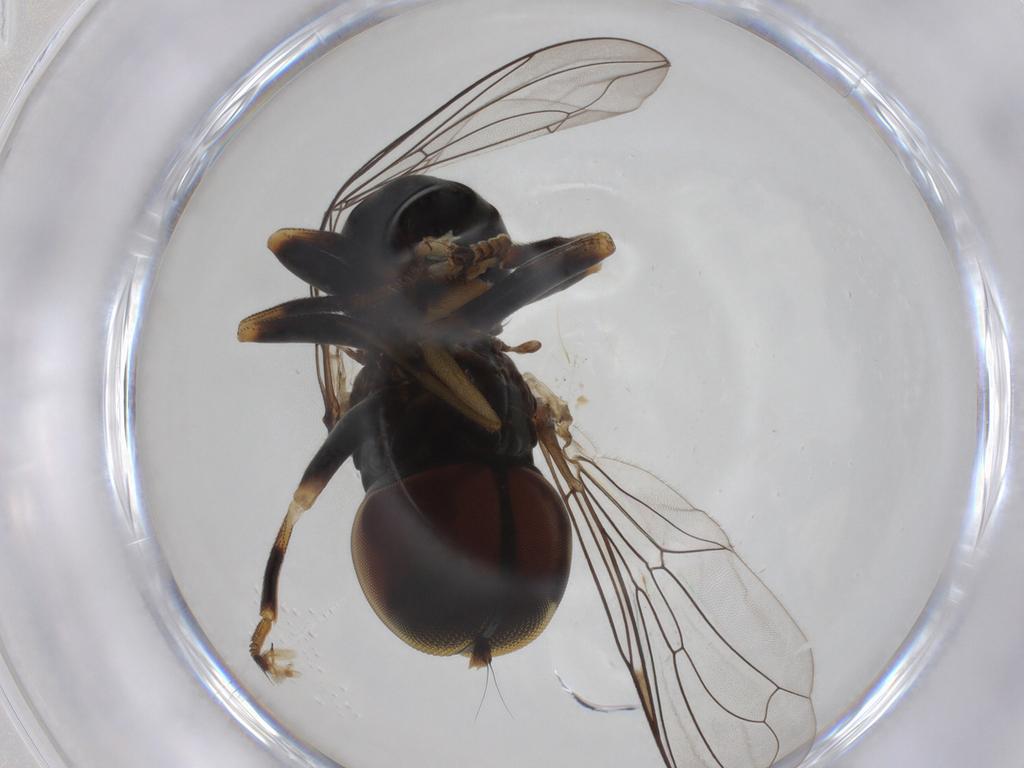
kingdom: Animalia
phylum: Arthropoda
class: Insecta
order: Diptera
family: Pipunculidae
